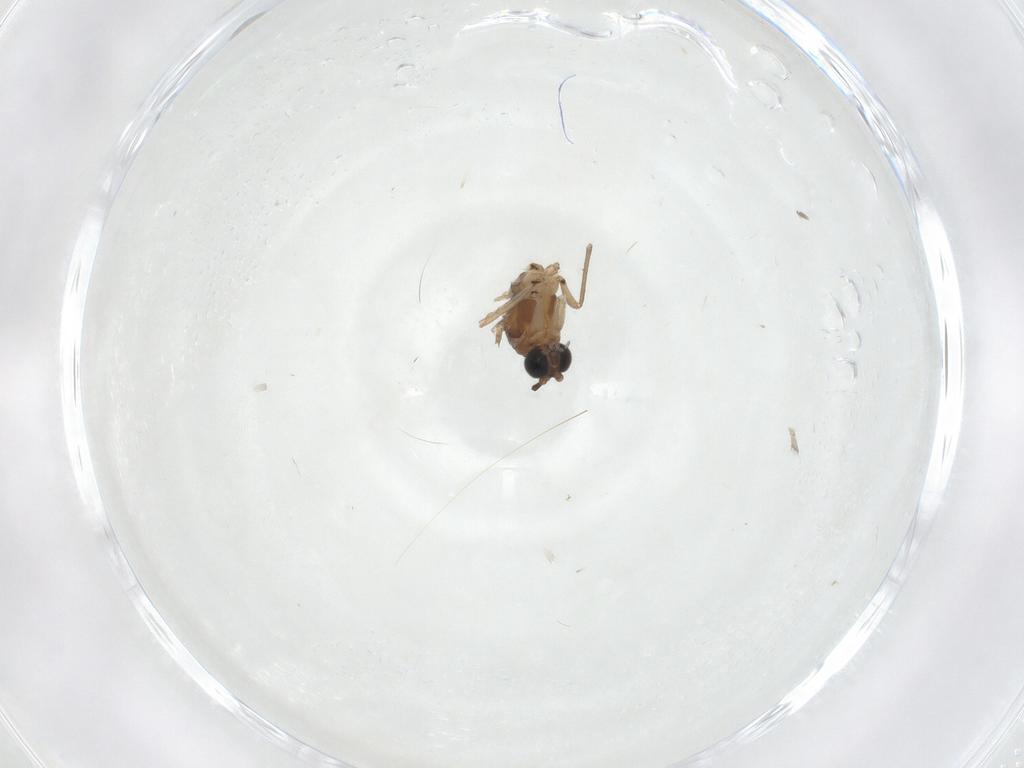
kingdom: Animalia
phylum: Arthropoda
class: Insecta
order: Diptera
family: Sciaridae
